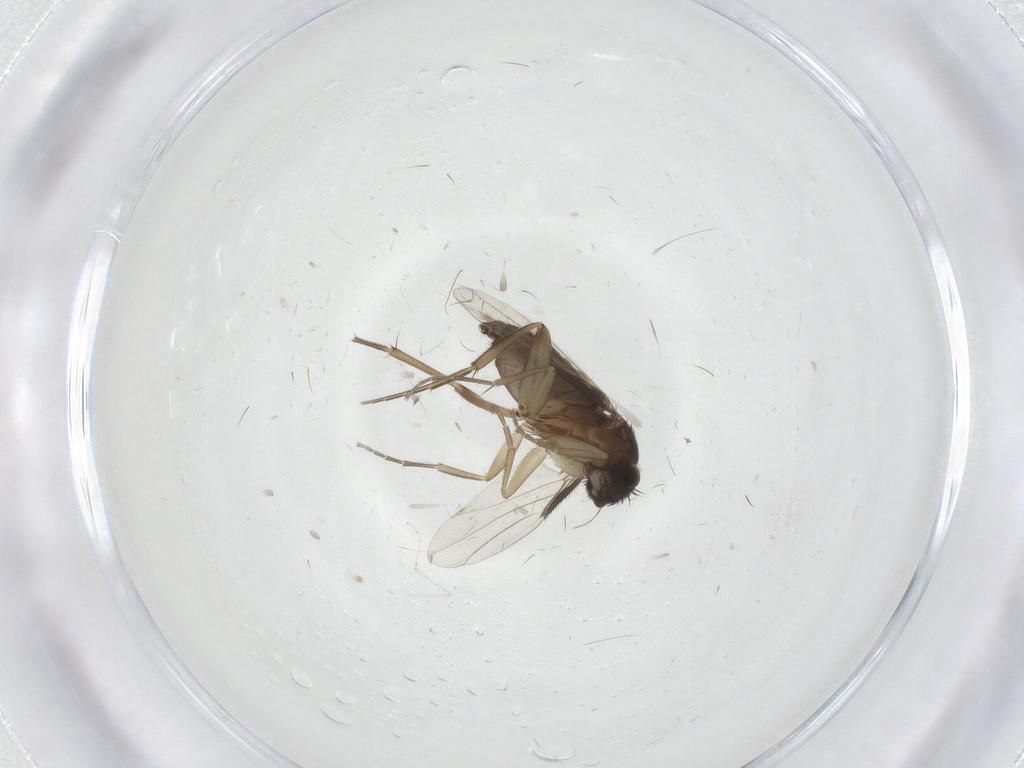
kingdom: Animalia
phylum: Arthropoda
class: Insecta
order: Diptera
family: Phoridae
